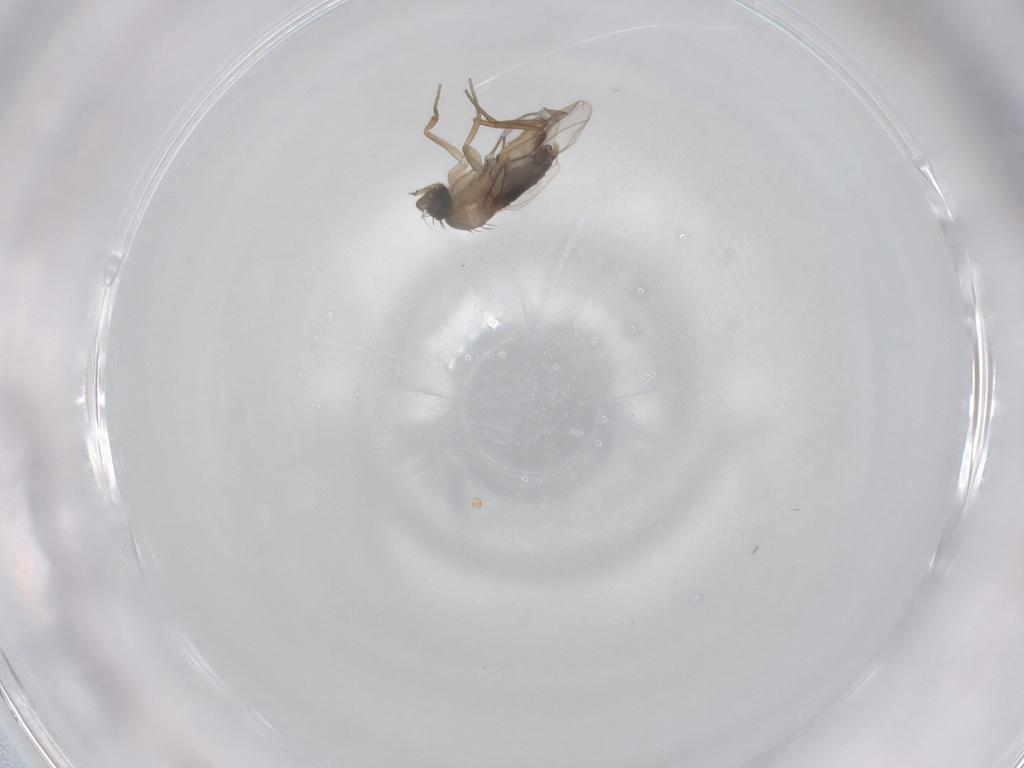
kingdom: Animalia
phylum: Arthropoda
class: Insecta
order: Diptera
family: Phoridae
